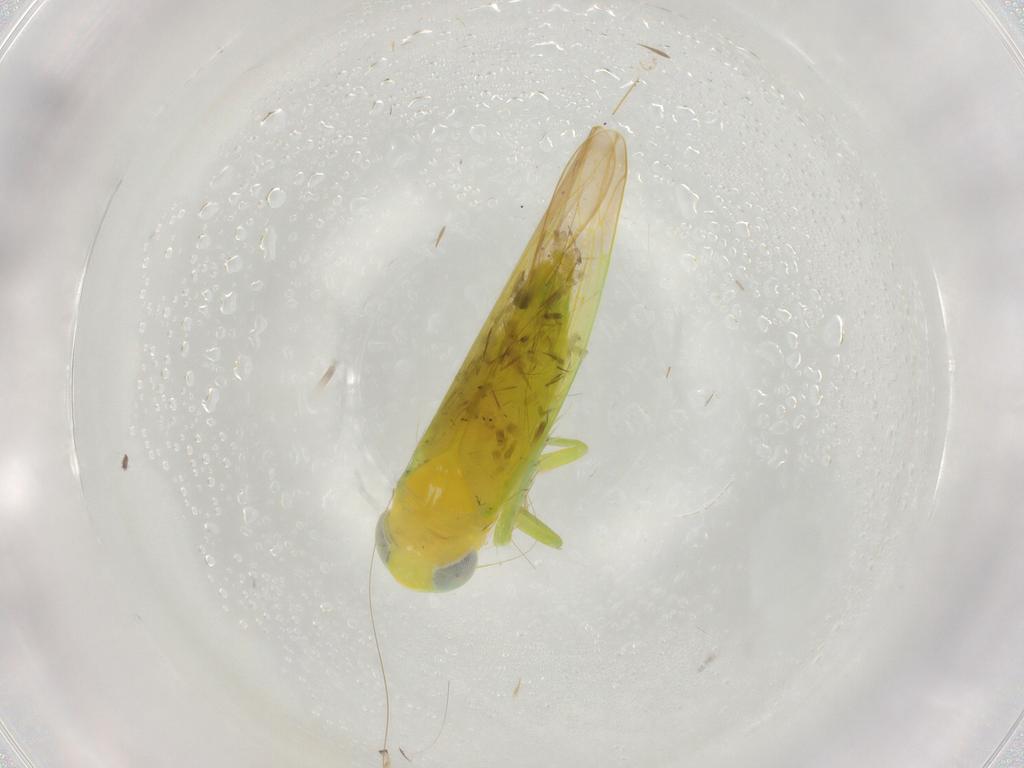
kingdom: Animalia
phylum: Arthropoda
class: Insecta
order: Hemiptera
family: Cicadellidae
